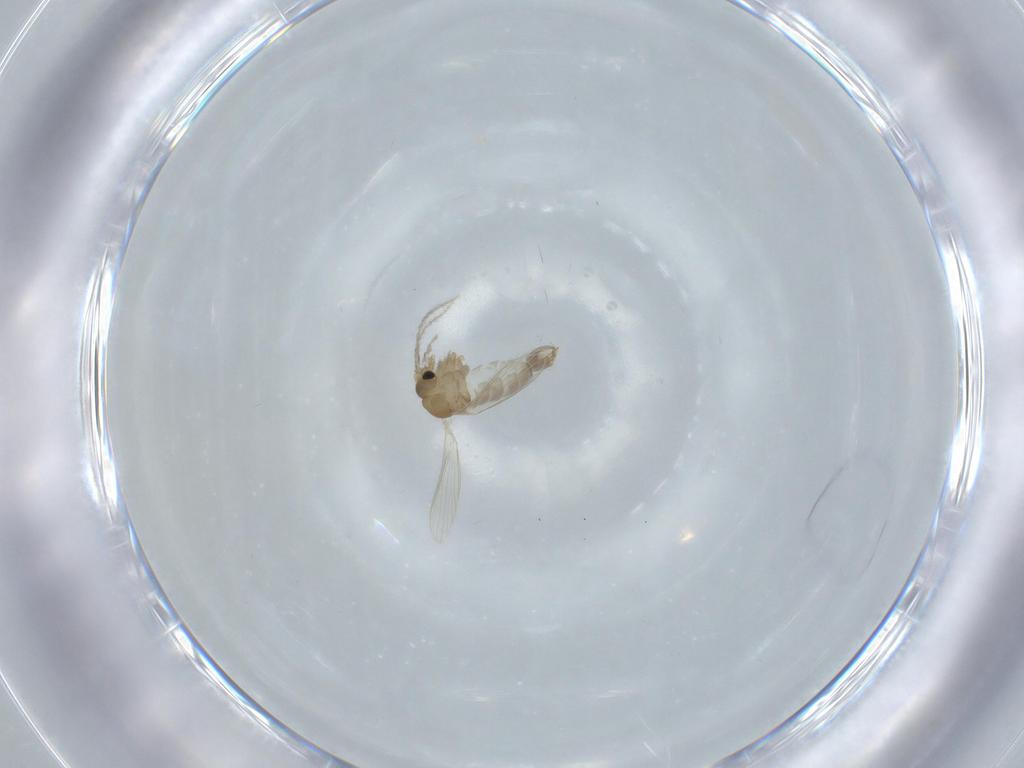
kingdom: Animalia
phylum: Arthropoda
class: Insecta
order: Diptera
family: Psychodidae
